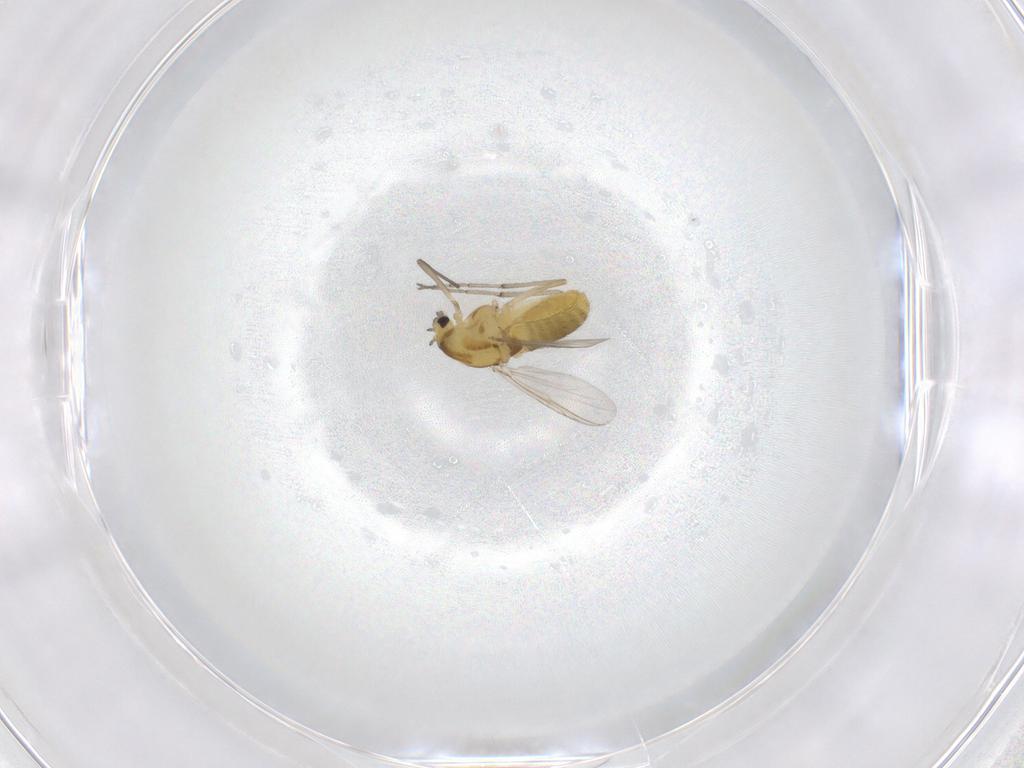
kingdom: Animalia
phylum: Arthropoda
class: Insecta
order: Diptera
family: Chironomidae
